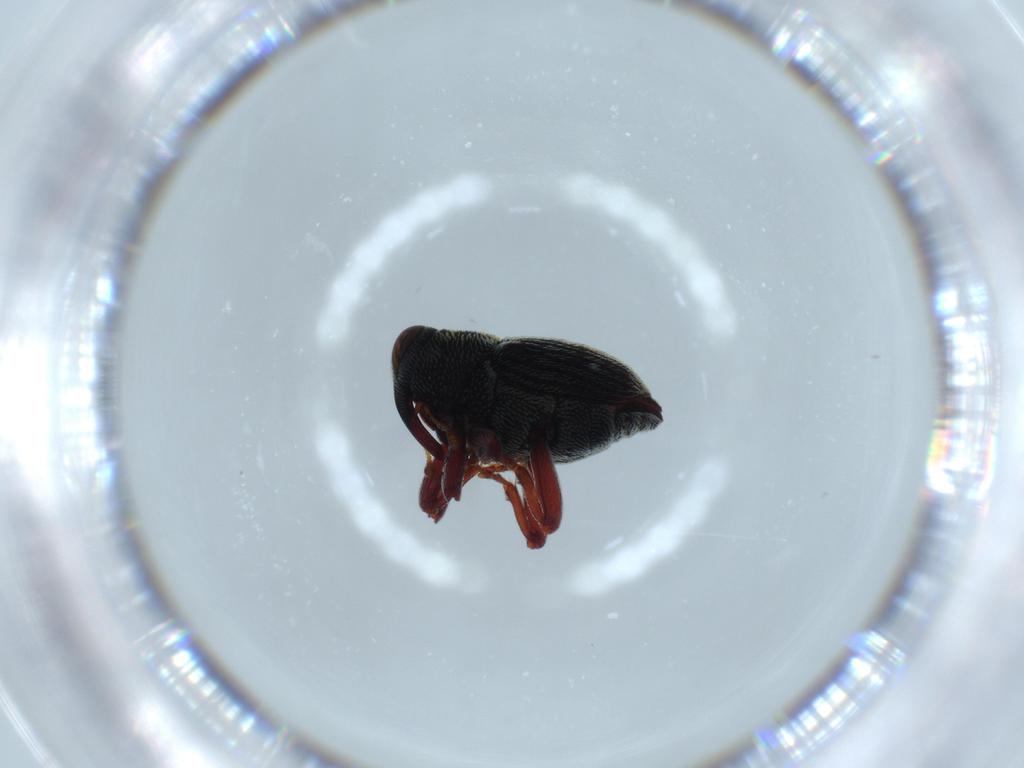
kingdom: Animalia
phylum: Arthropoda
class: Insecta
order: Coleoptera
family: Curculionidae
